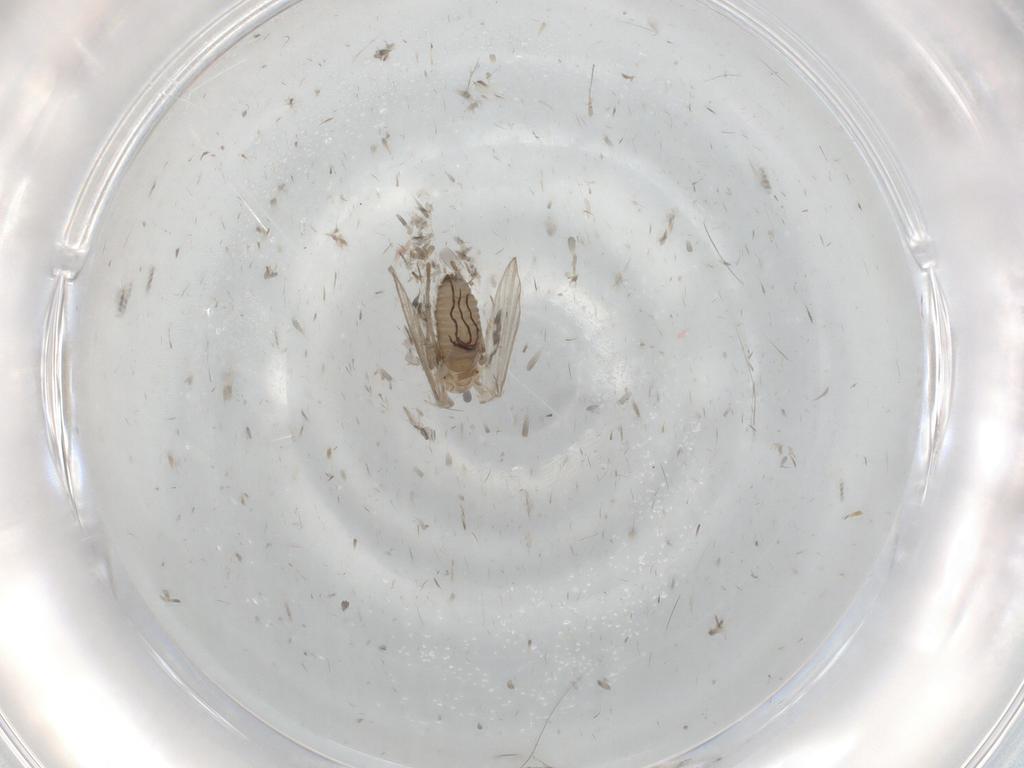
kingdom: Animalia
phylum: Arthropoda
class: Insecta
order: Diptera
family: Psychodidae
